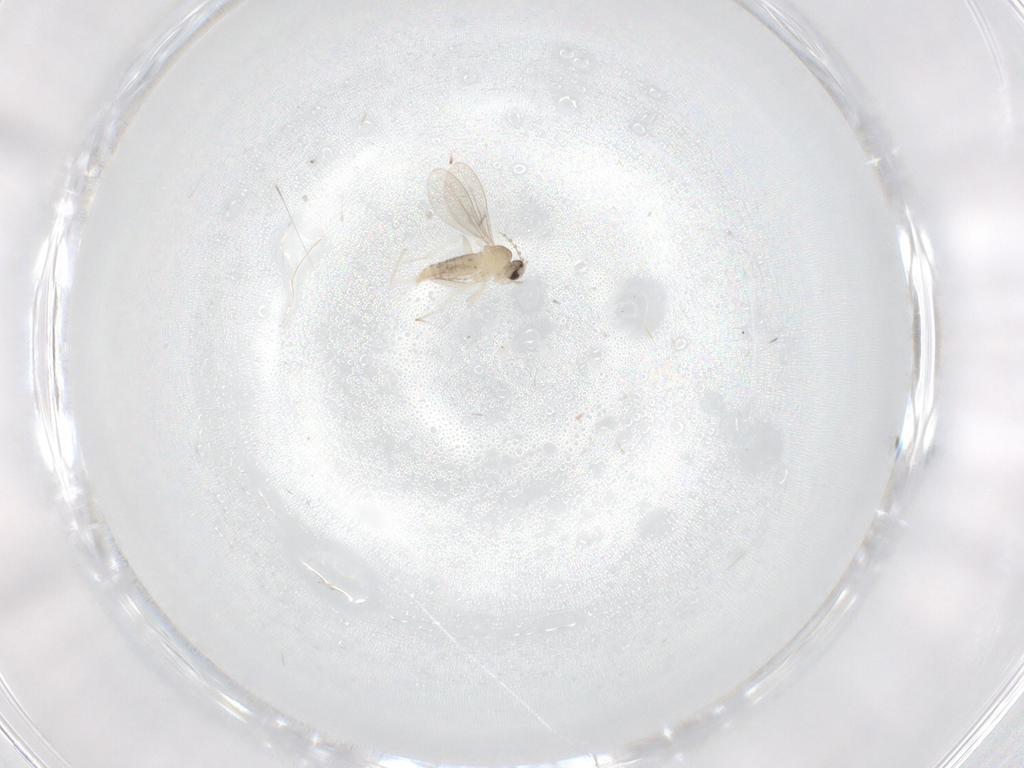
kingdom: Animalia
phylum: Arthropoda
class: Insecta
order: Diptera
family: Cecidomyiidae
